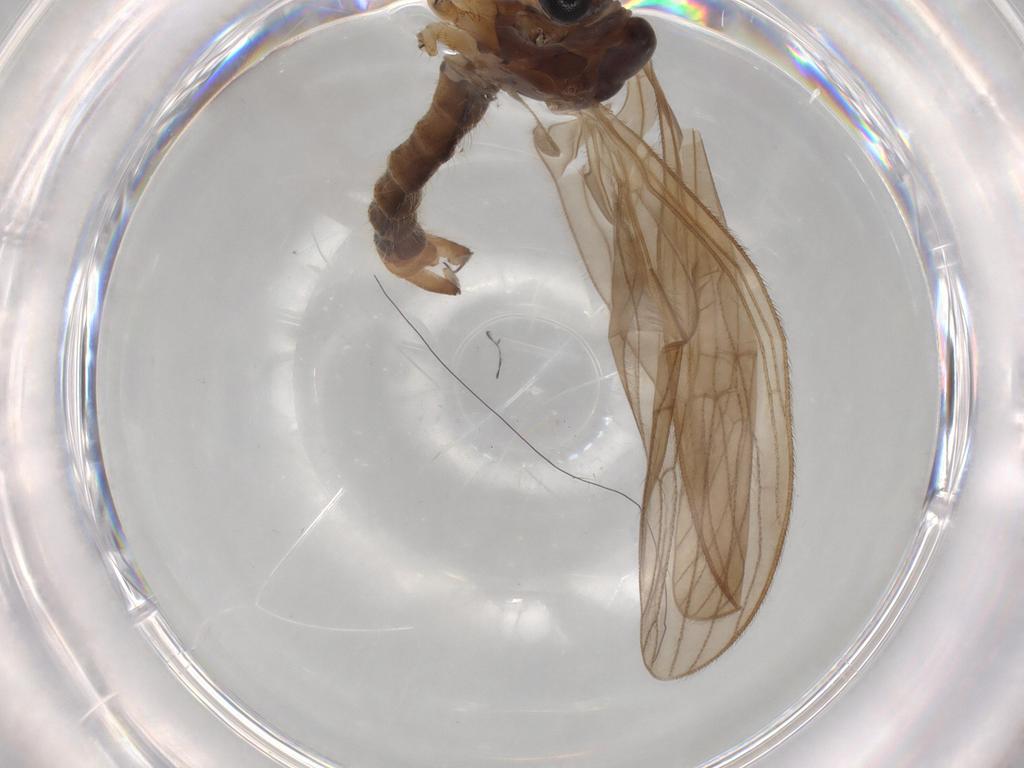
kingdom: Animalia
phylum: Arthropoda
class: Insecta
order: Diptera
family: Limoniidae
